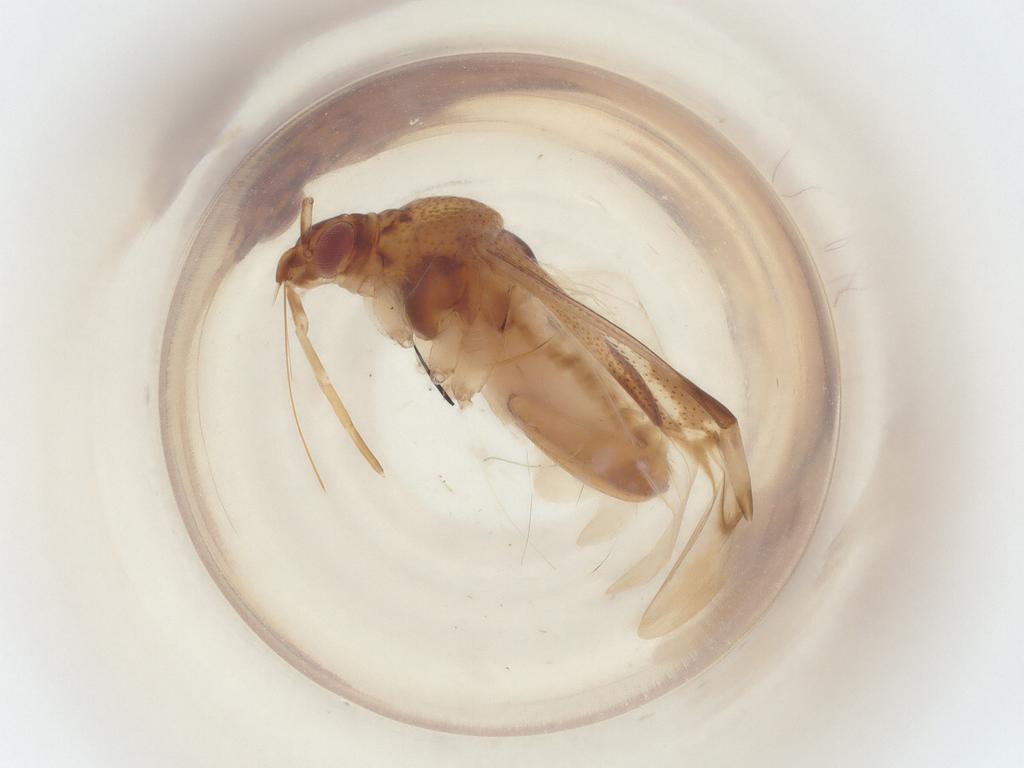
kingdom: Animalia
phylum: Arthropoda
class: Insecta
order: Hemiptera
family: Miridae
